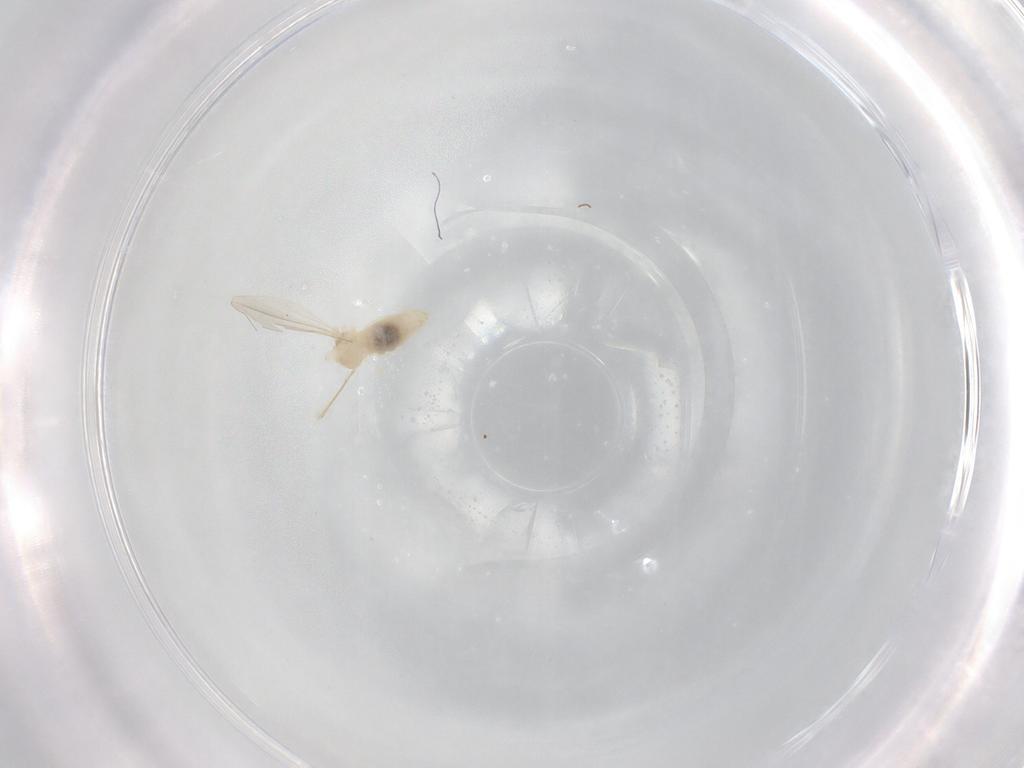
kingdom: Animalia
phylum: Arthropoda
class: Insecta
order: Diptera
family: Cecidomyiidae
